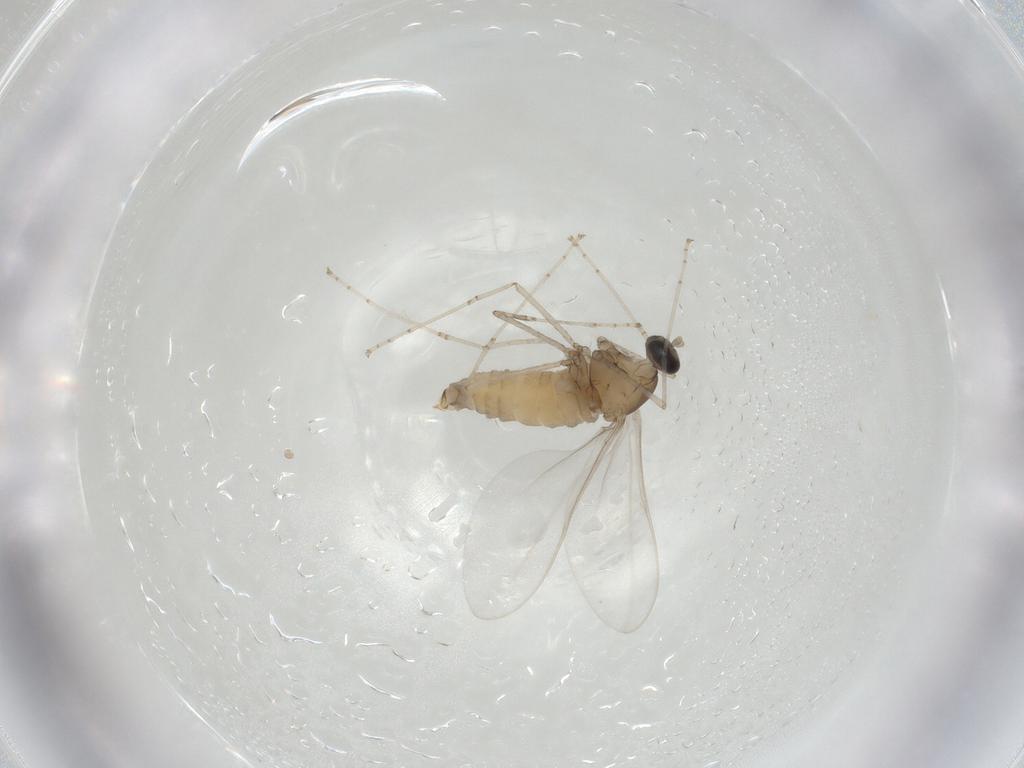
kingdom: Animalia
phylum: Arthropoda
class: Insecta
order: Diptera
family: Cecidomyiidae
